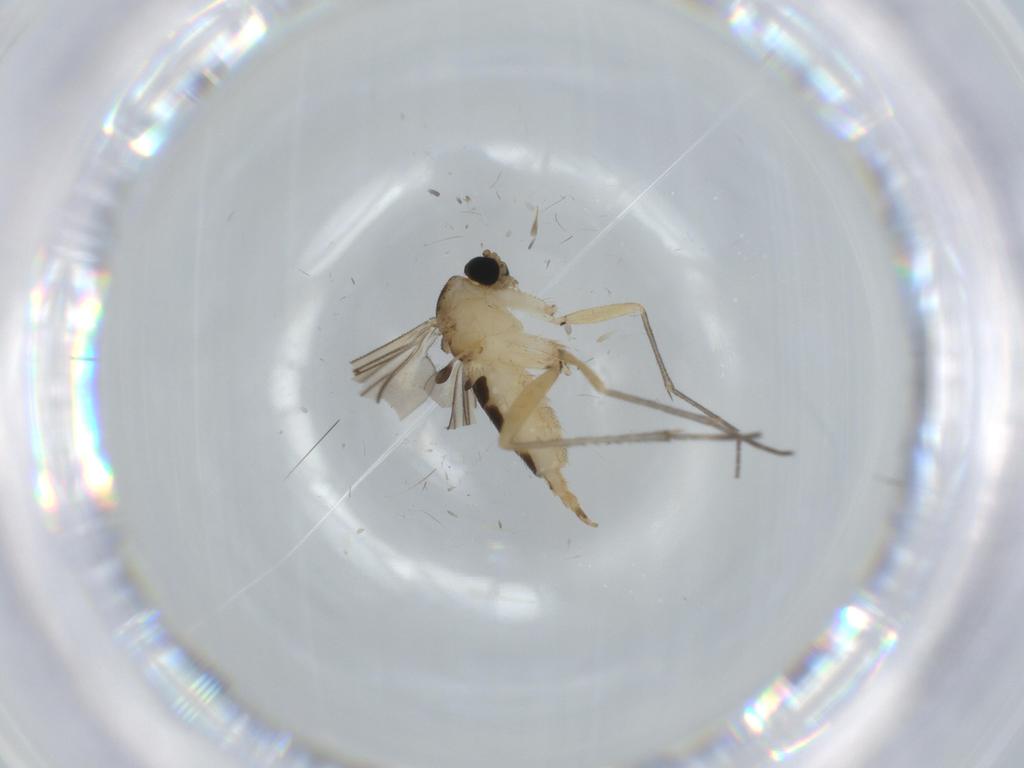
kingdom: Animalia
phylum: Arthropoda
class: Insecta
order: Diptera
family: Sciaridae
